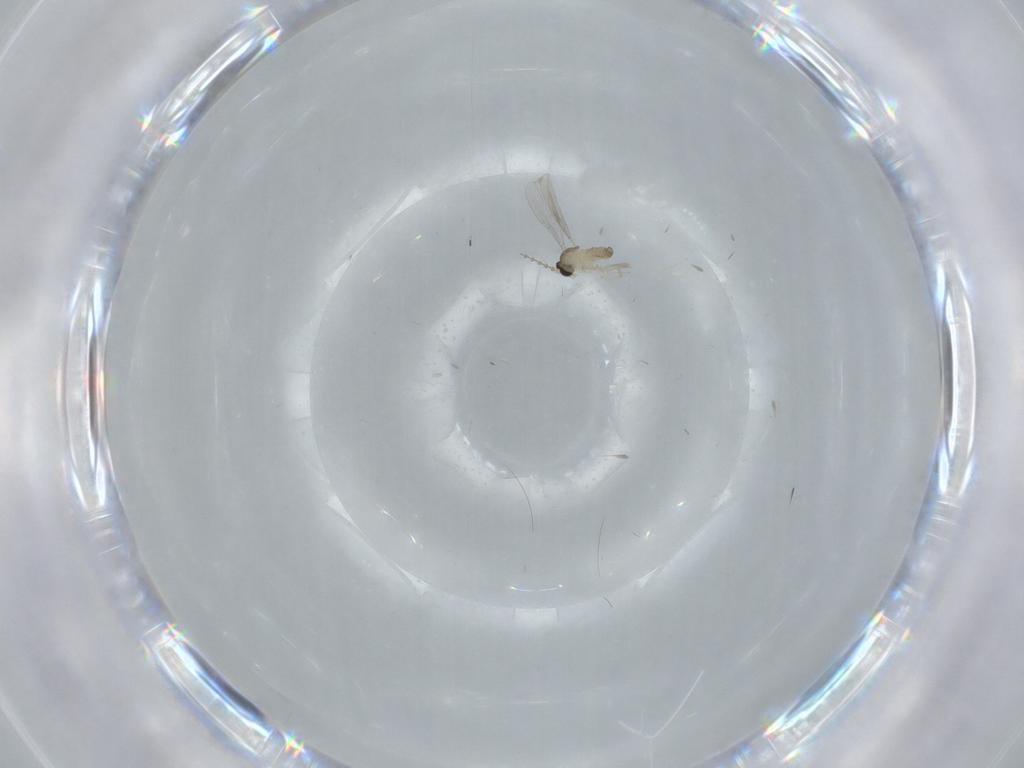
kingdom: Animalia
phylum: Arthropoda
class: Insecta
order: Diptera
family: Cecidomyiidae
